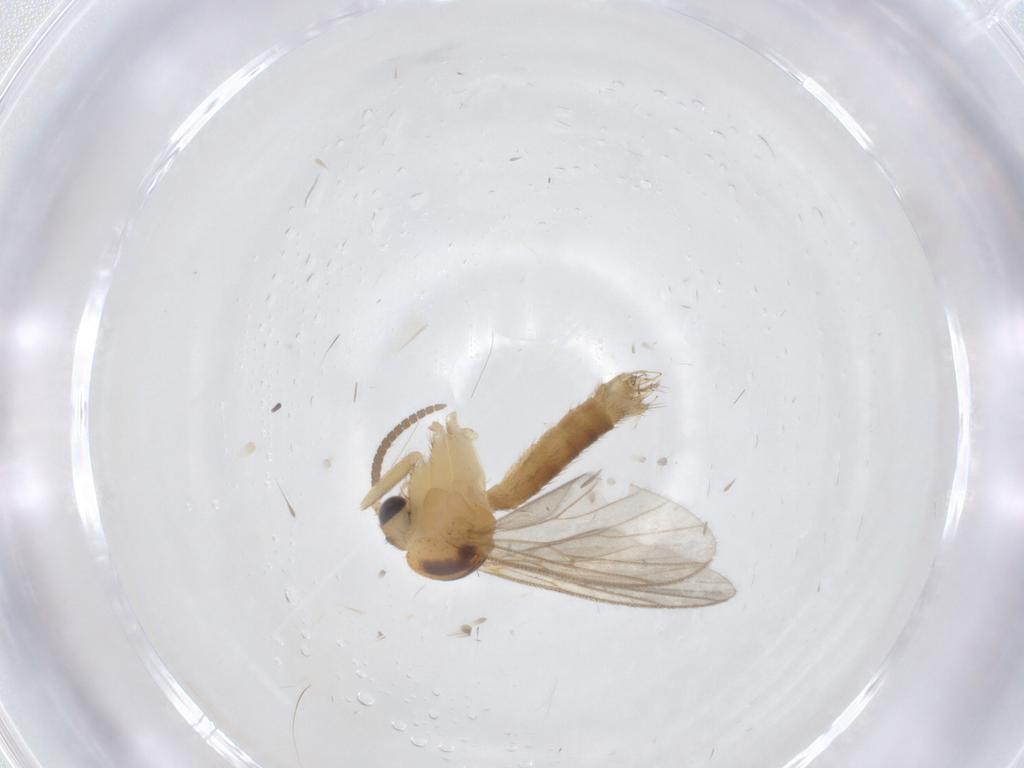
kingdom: Animalia
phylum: Arthropoda
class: Insecta
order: Diptera
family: Mycetophilidae
